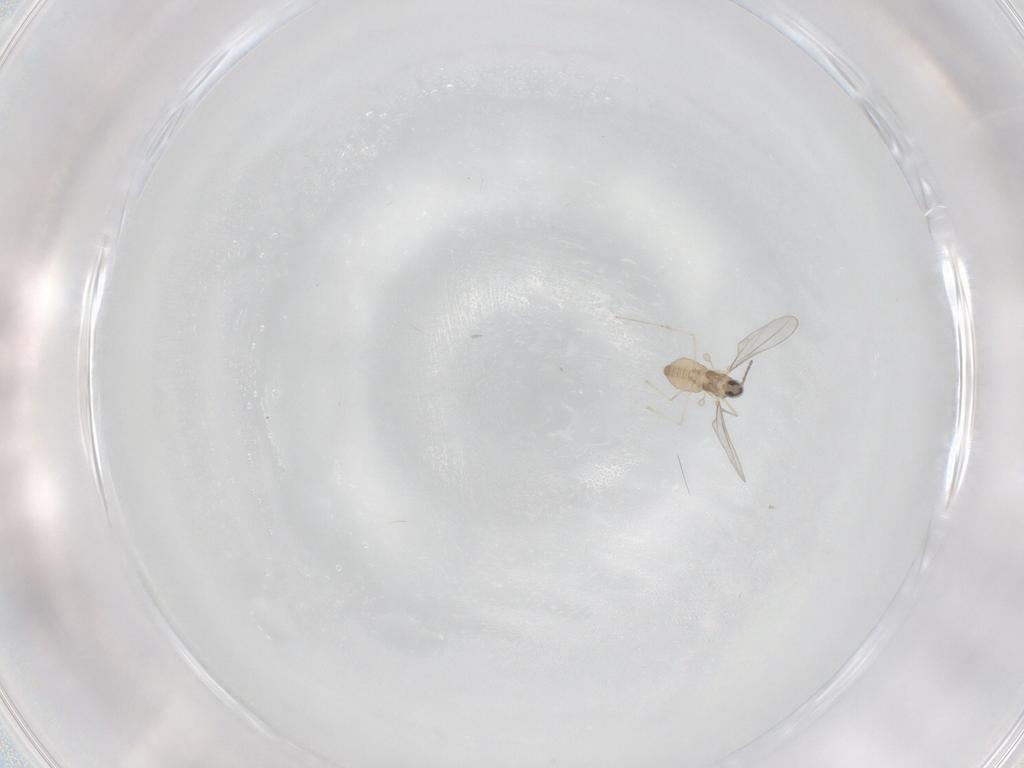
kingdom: Animalia
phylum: Arthropoda
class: Insecta
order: Diptera
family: Cecidomyiidae
